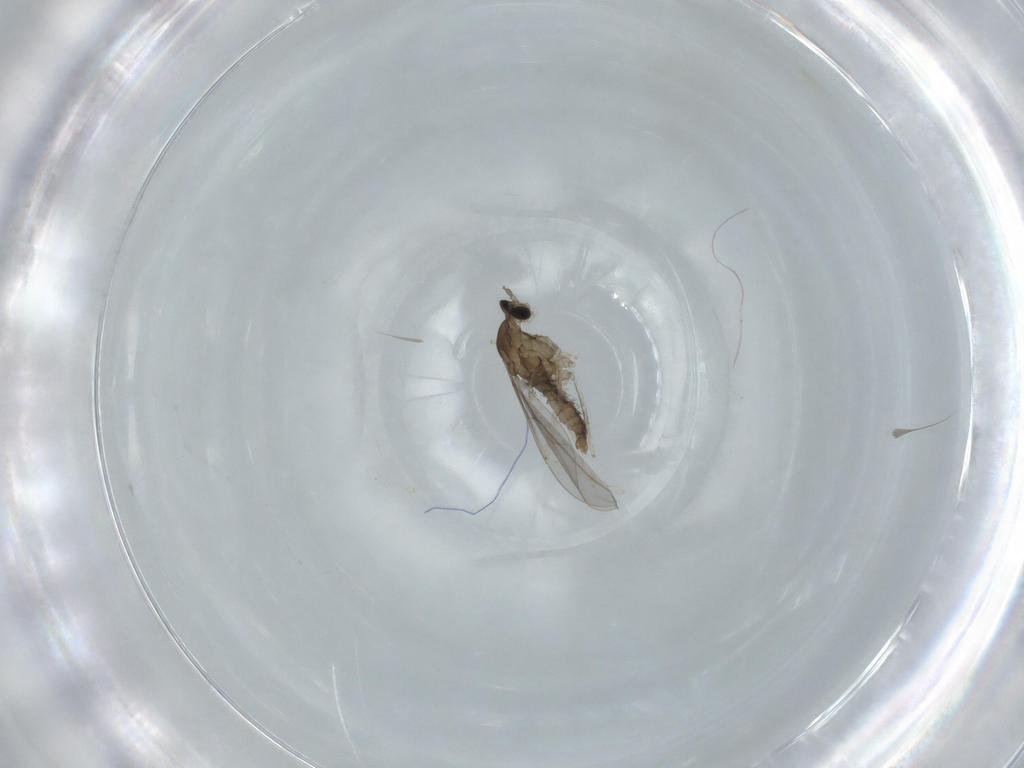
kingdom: Animalia
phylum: Arthropoda
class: Insecta
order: Diptera
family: Cecidomyiidae
